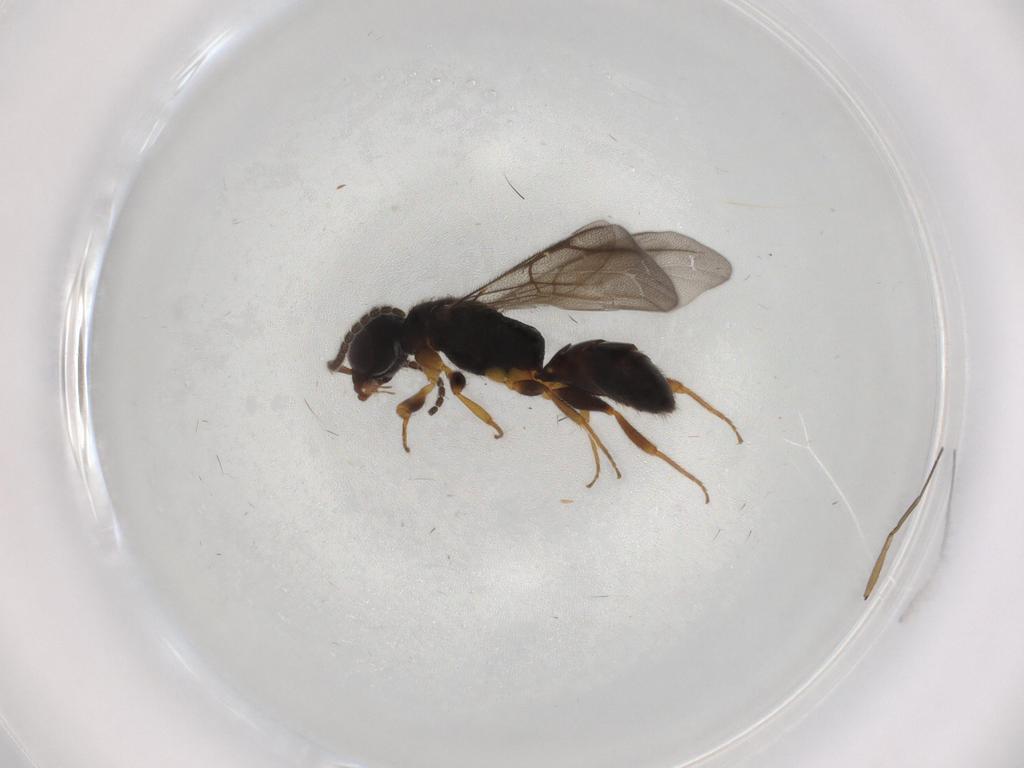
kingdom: Animalia
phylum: Arthropoda
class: Insecta
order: Hymenoptera
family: Bethylidae
